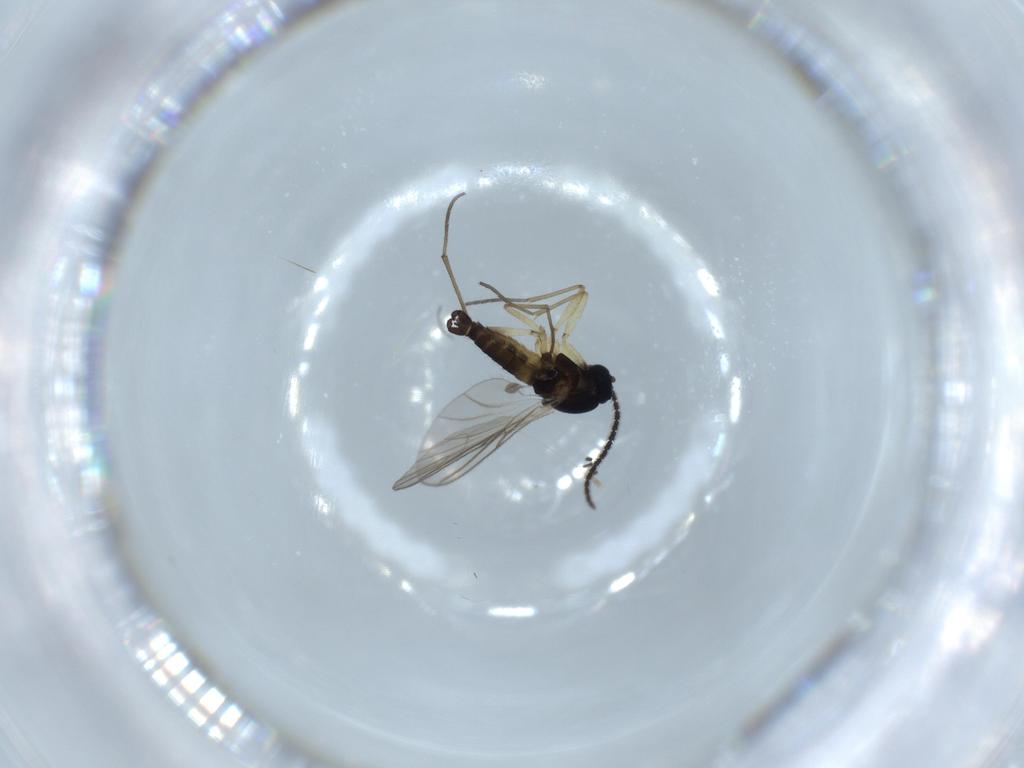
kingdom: Animalia
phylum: Arthropoda
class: Insecta
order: Diptera
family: Sciaridae
